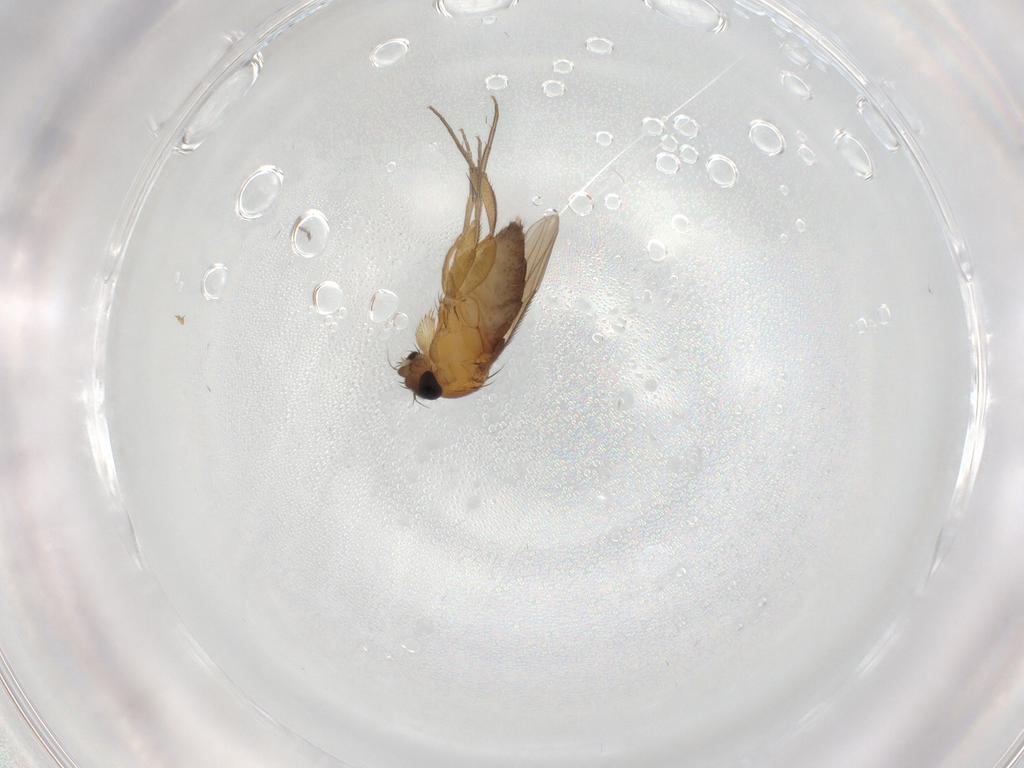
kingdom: Animalia
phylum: Arthropoda
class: Insecta
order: Diptera
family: Phoridae
